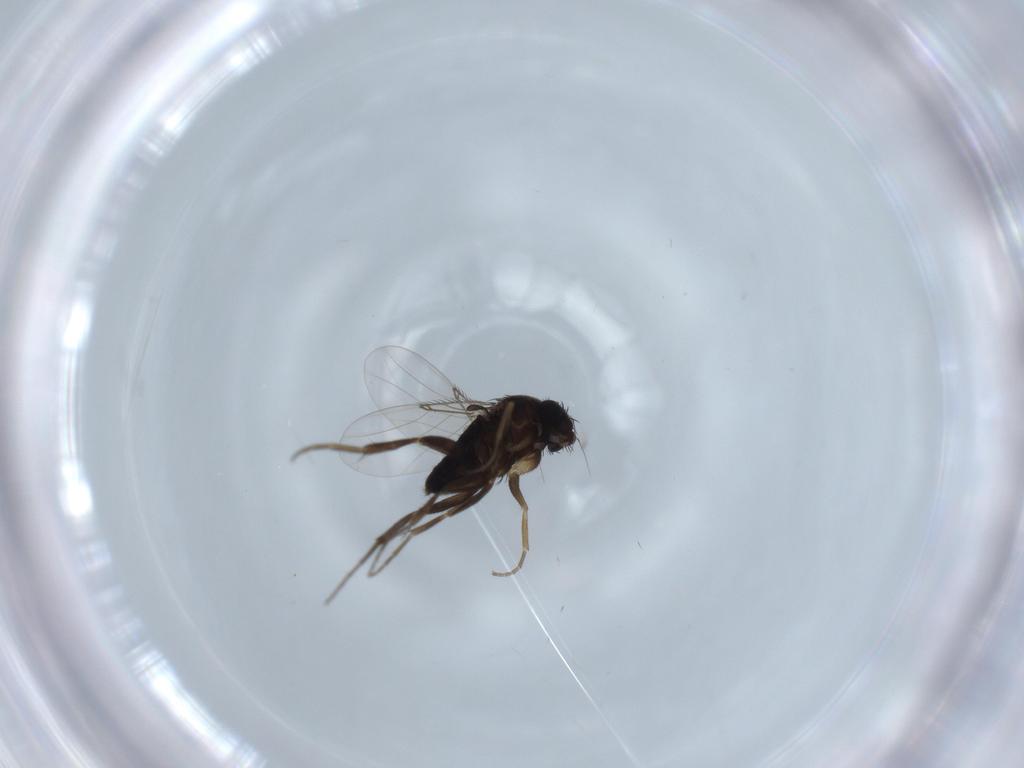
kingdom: Animalia
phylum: Arthropoda
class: Insecta
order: Diptera
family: Phoridae
